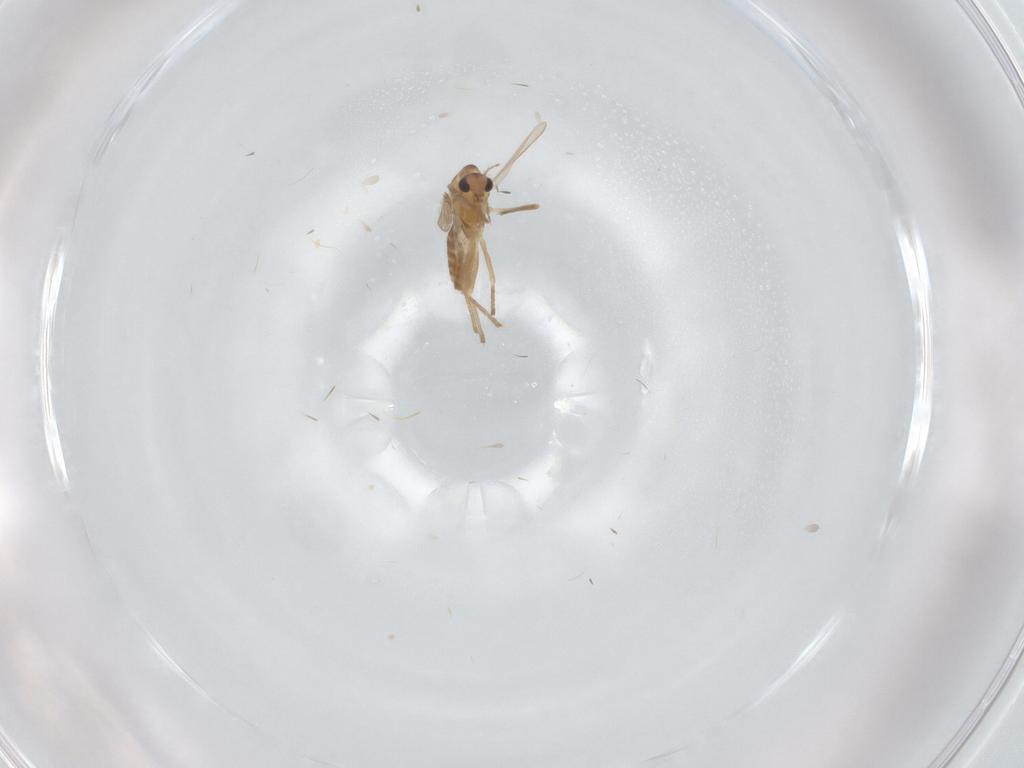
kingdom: Animalia
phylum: Arthropoda
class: Insecta
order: Diptera
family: Chironomidae
